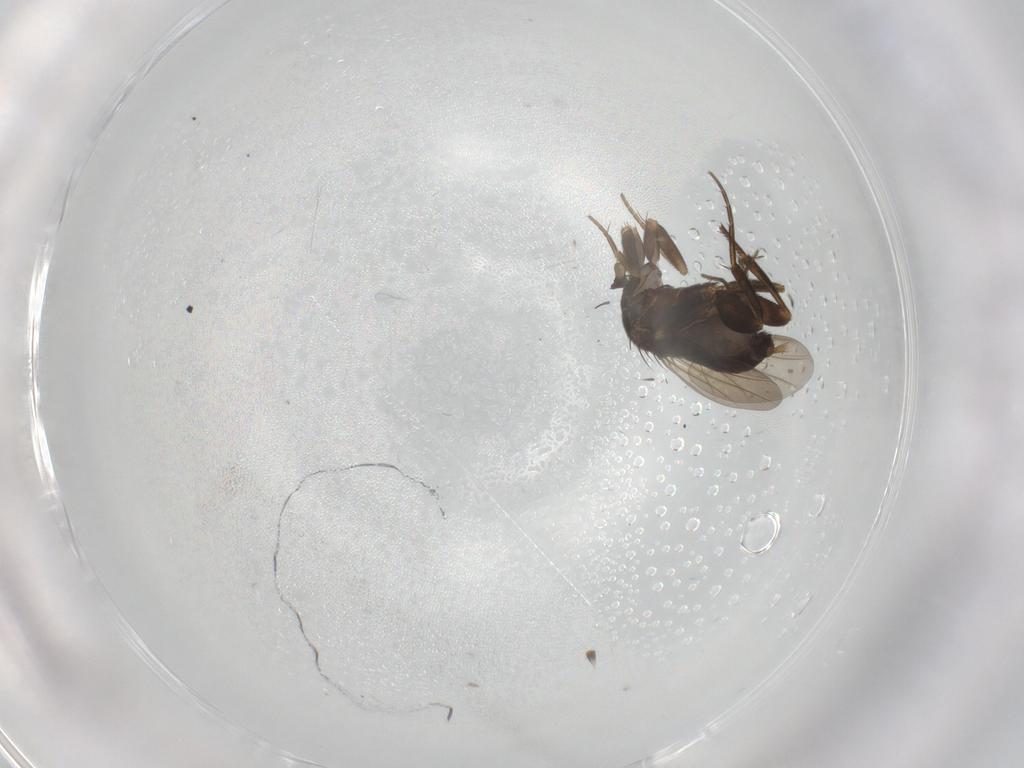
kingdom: Animalia
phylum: Arthropoda
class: Insecta
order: Diptera
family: Phoridae
